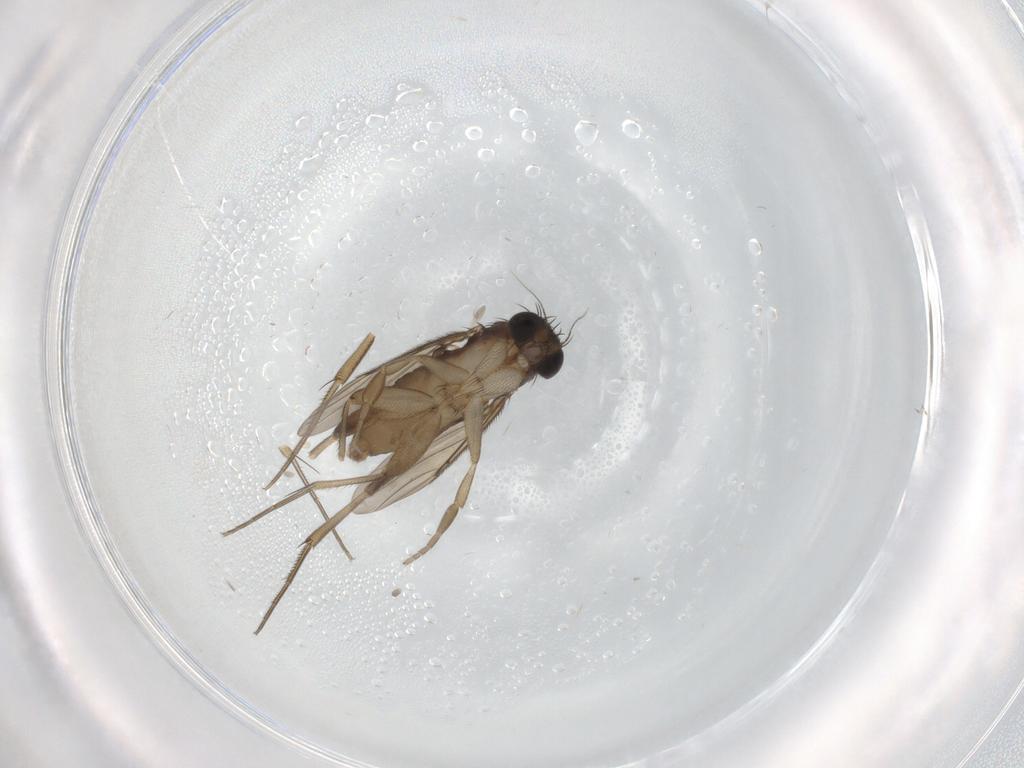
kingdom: Animalia
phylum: Arthropoda
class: Insecta
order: Diptera
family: Phoridae
